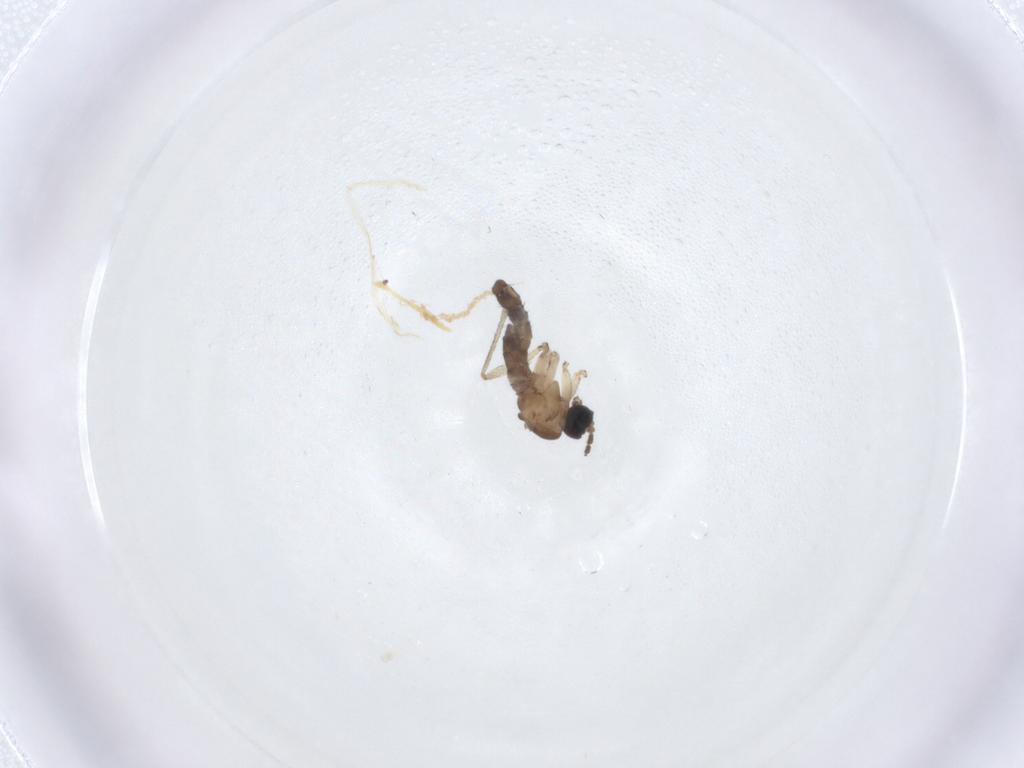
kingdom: Animalia
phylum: Arthropoda
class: Insecta
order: Diptera
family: Sciaridae
